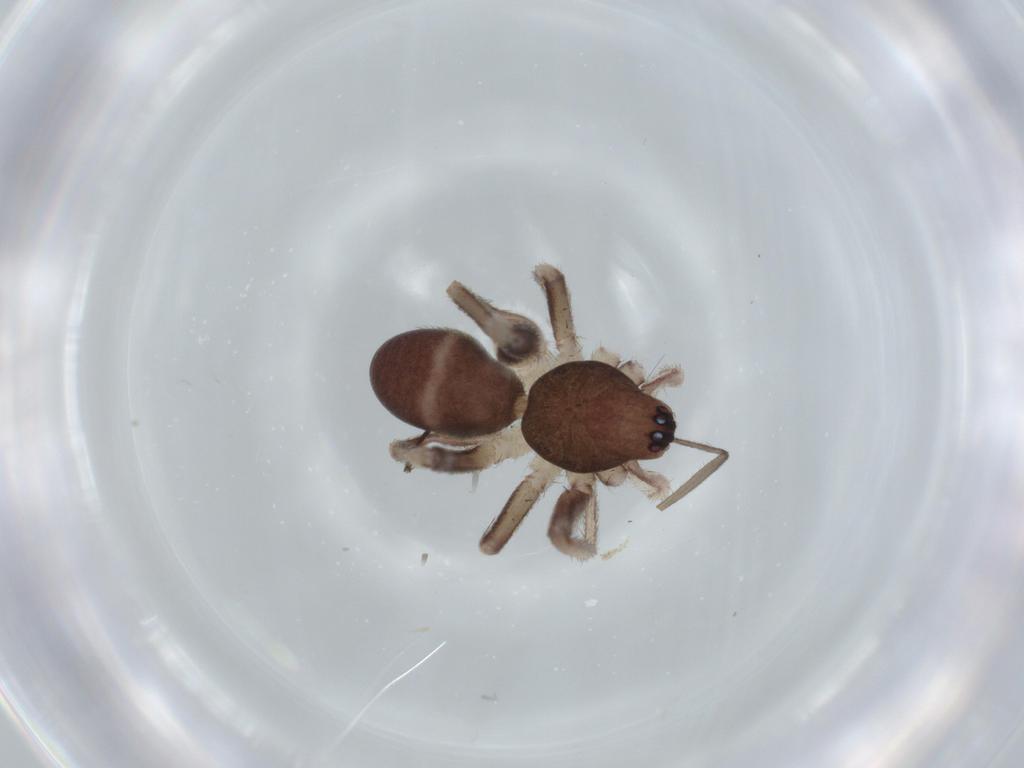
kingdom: Animalia
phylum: Arthropoda
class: Arachnida
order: Araneae
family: Corinnidae
